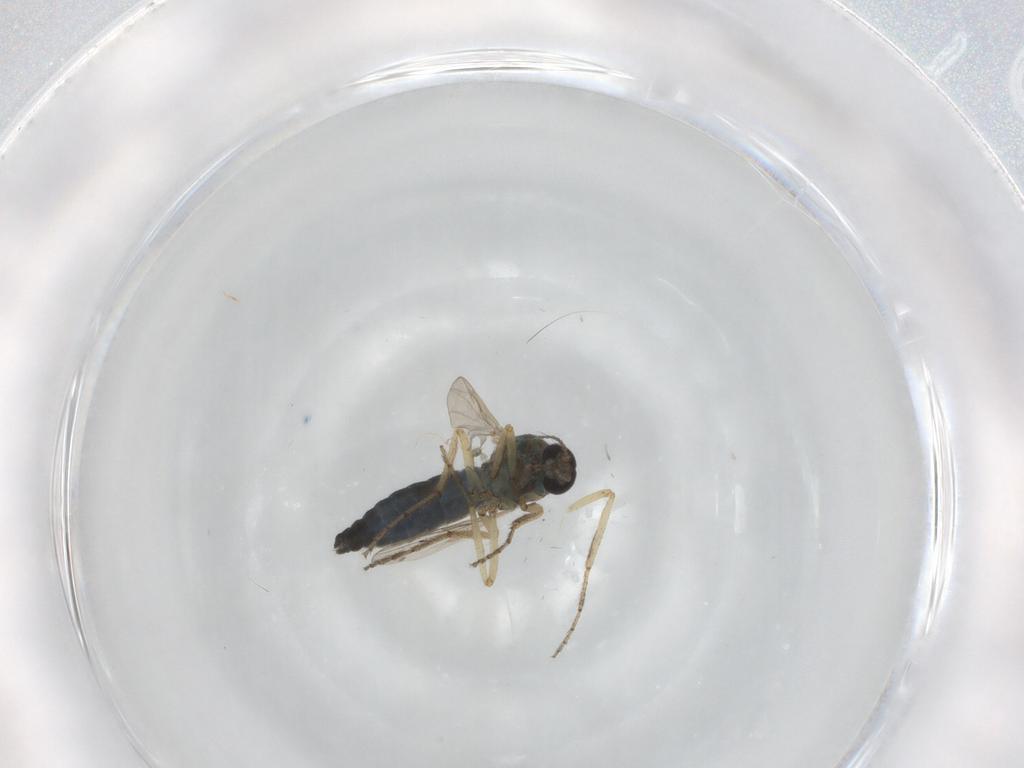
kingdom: Animalia
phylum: Arthropoda
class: Insecta
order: Diptera
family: Ceratopogonidae
